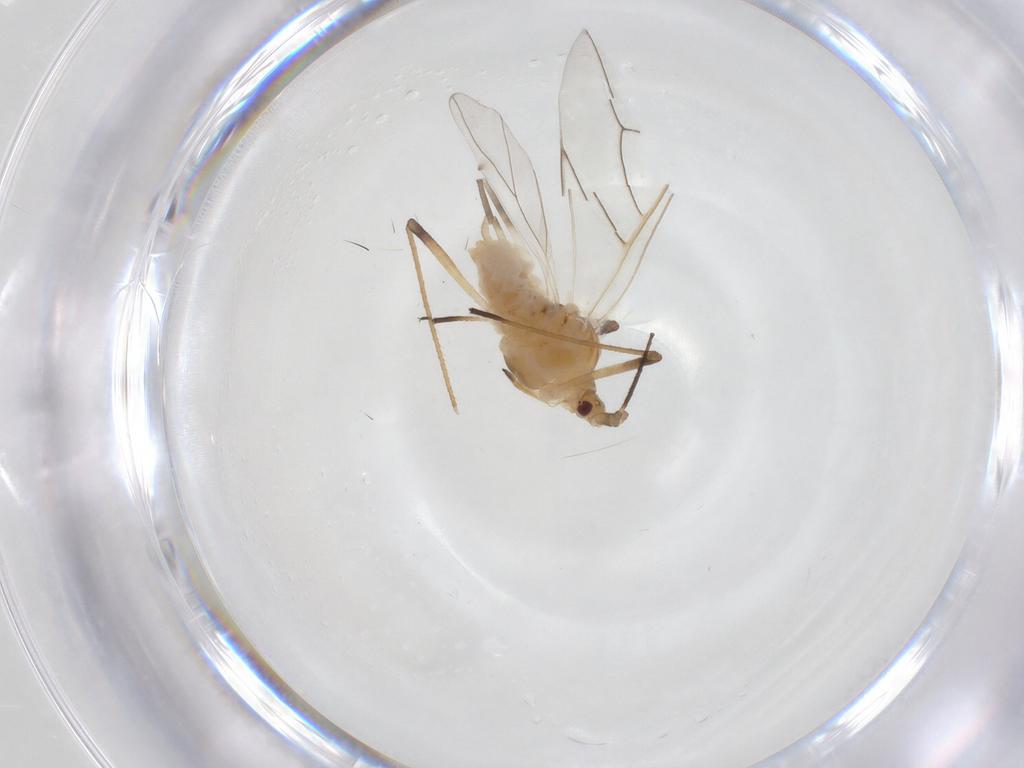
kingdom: Animalia
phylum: Arthropoda
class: Insecta
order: Hemiptera
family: Aphididae
